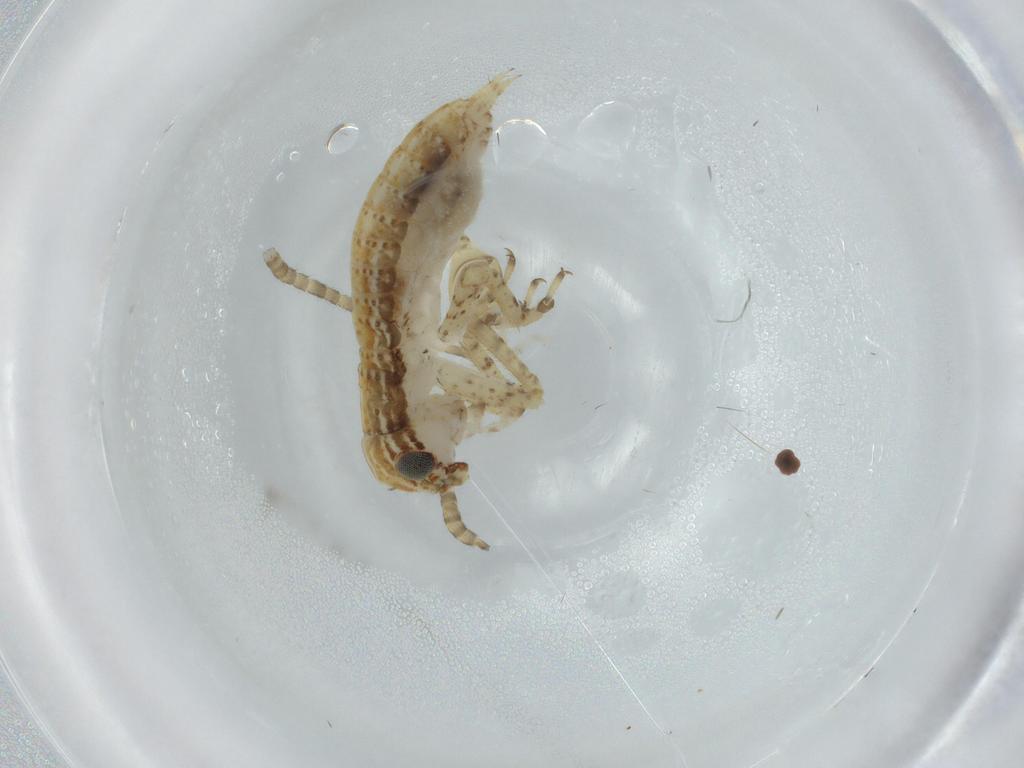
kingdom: Animalia
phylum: Arthropoda
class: Insecta
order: Orthoptera
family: Gryllidae
